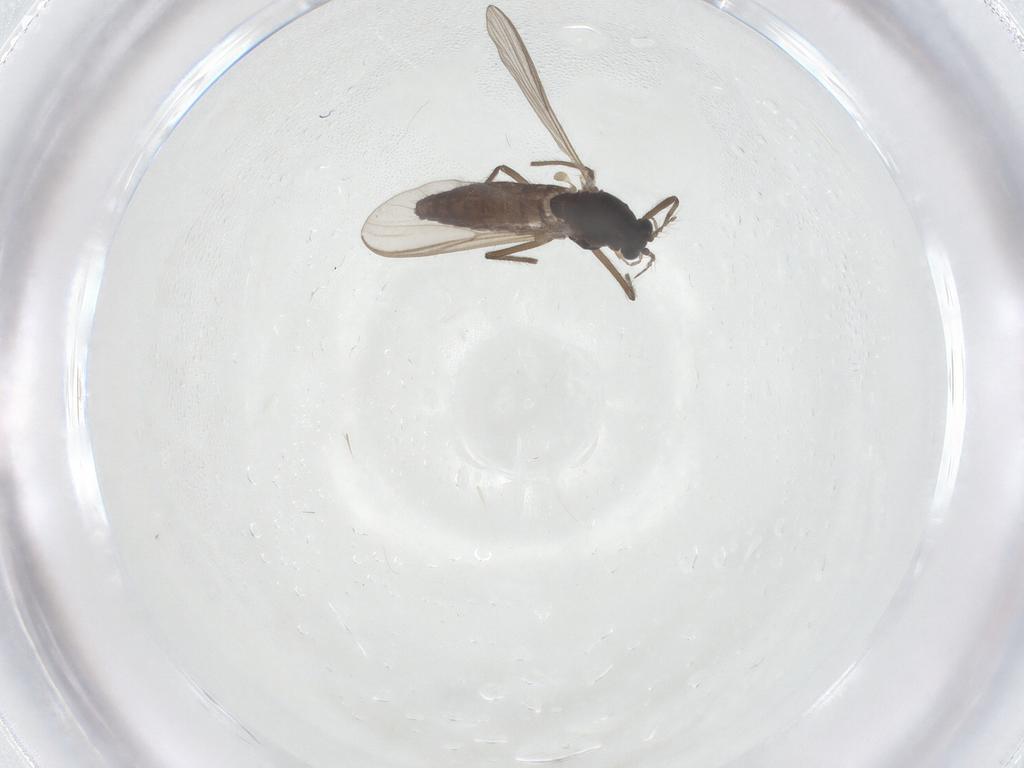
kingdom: Animalia
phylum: Arthropoda
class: Insecta
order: Diptera
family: Chironomidae
